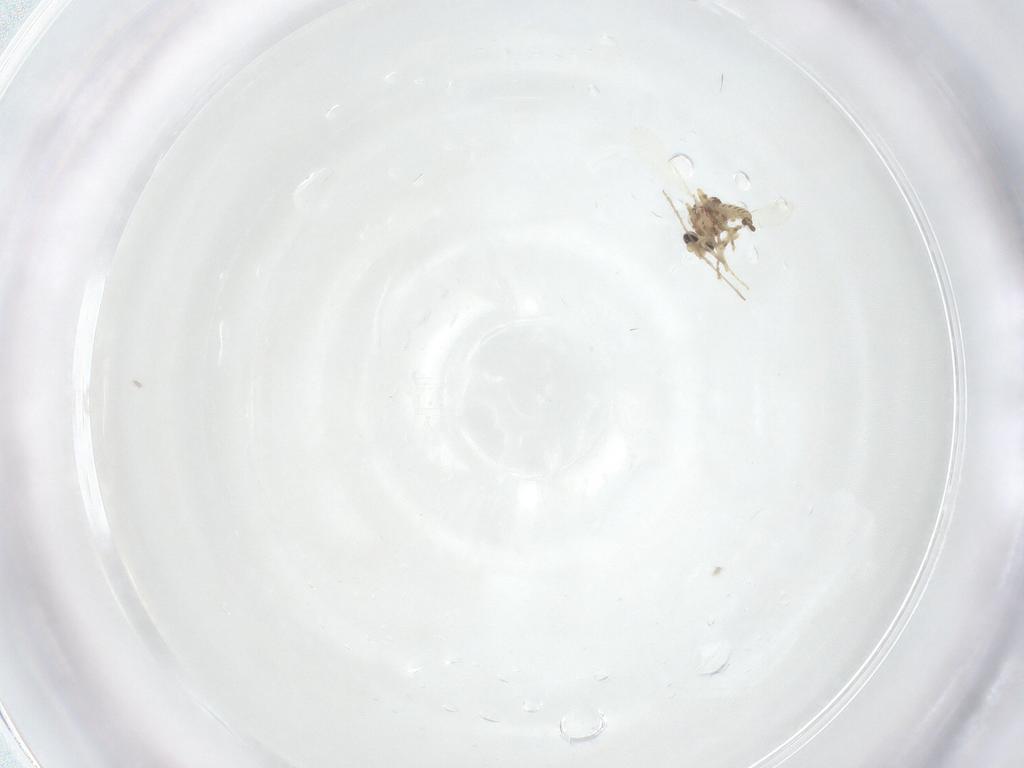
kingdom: Animalia
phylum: Arthropoda
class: Insecta
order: Diptera
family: Chironomidae
